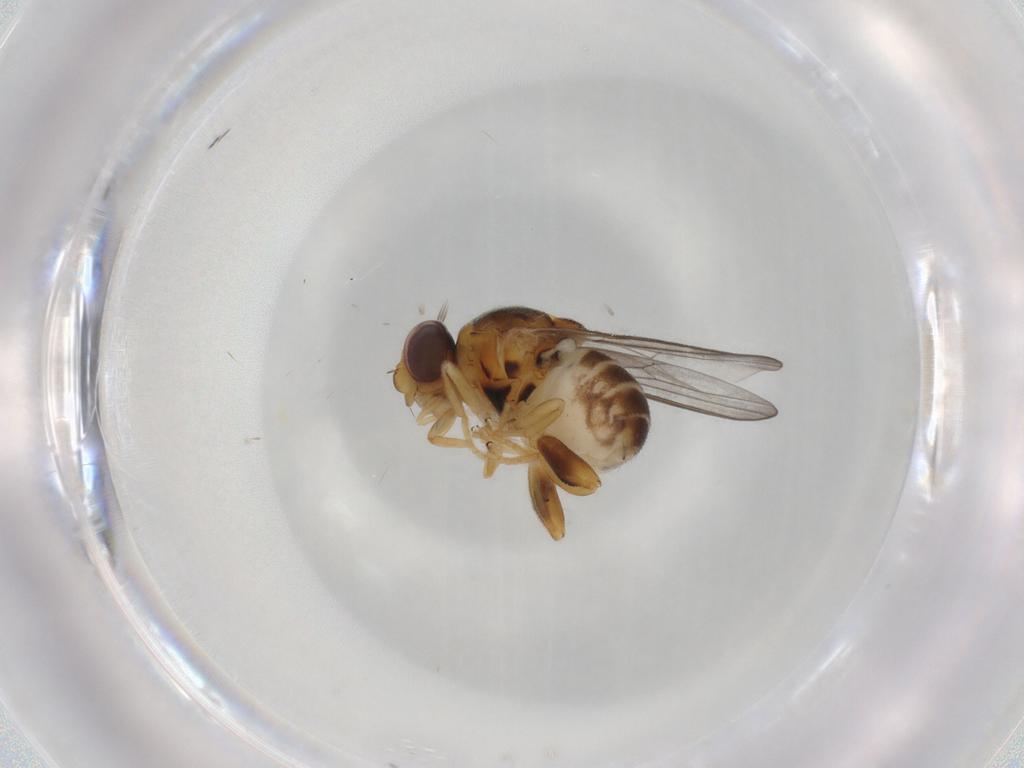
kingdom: Animalia
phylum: Arthropoda
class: Insecta
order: Diptera
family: Chloropidae
